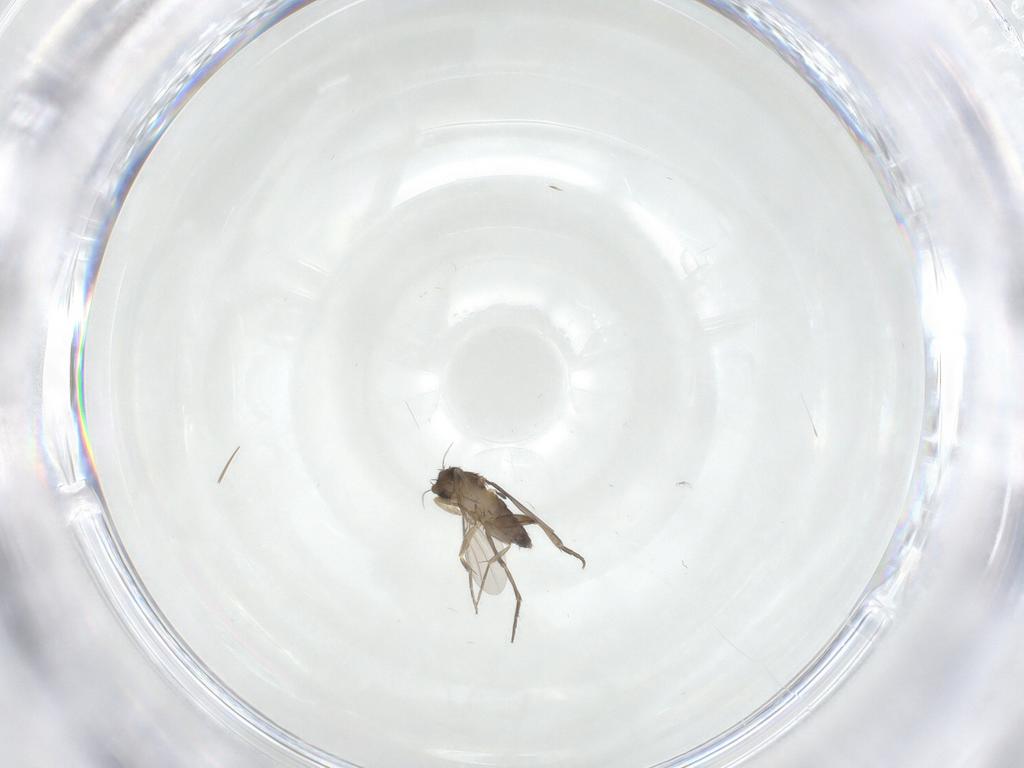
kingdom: Animalia
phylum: Arthropoda
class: Insecta
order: Diptera
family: Phoridae
